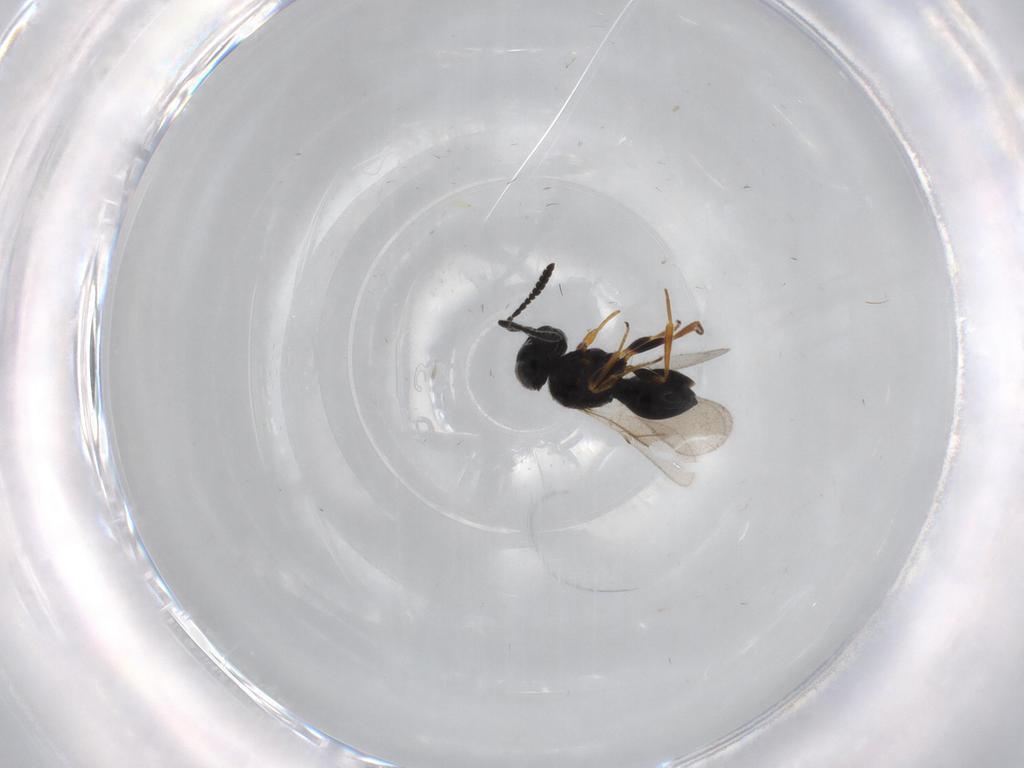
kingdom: Animalia
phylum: Arthropoda
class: Insecta
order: Hymenoptera
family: Scelionidae
